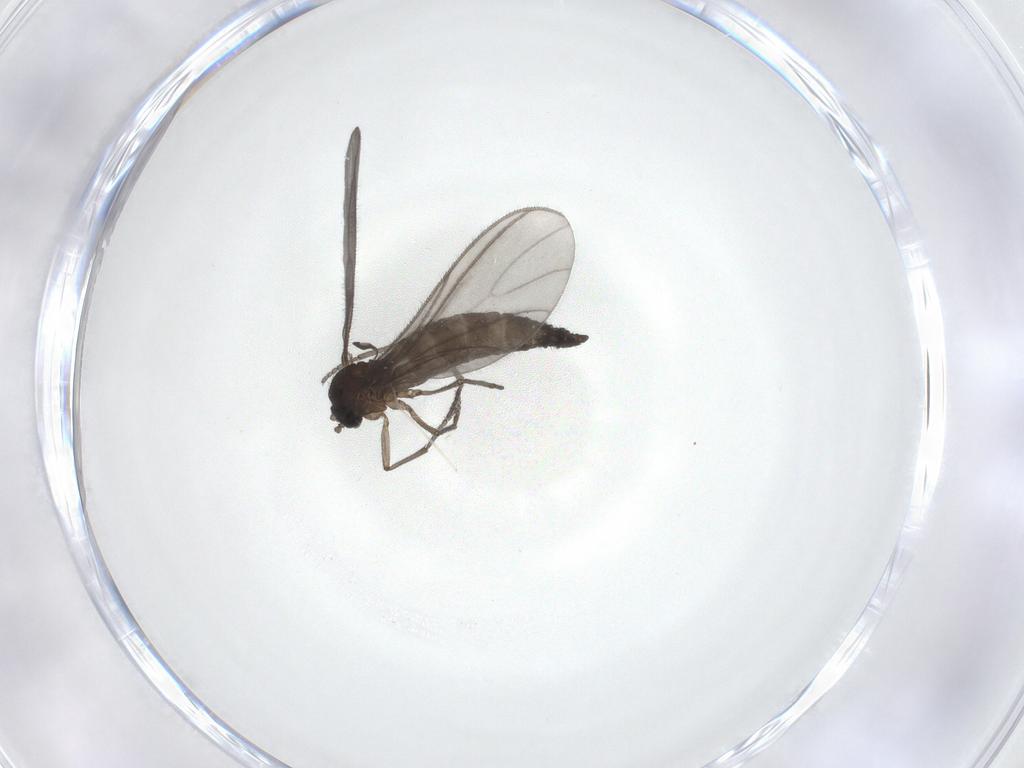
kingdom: Animalia
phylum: Arthropoda
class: Insecta
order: Diptera
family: Sciaridae
